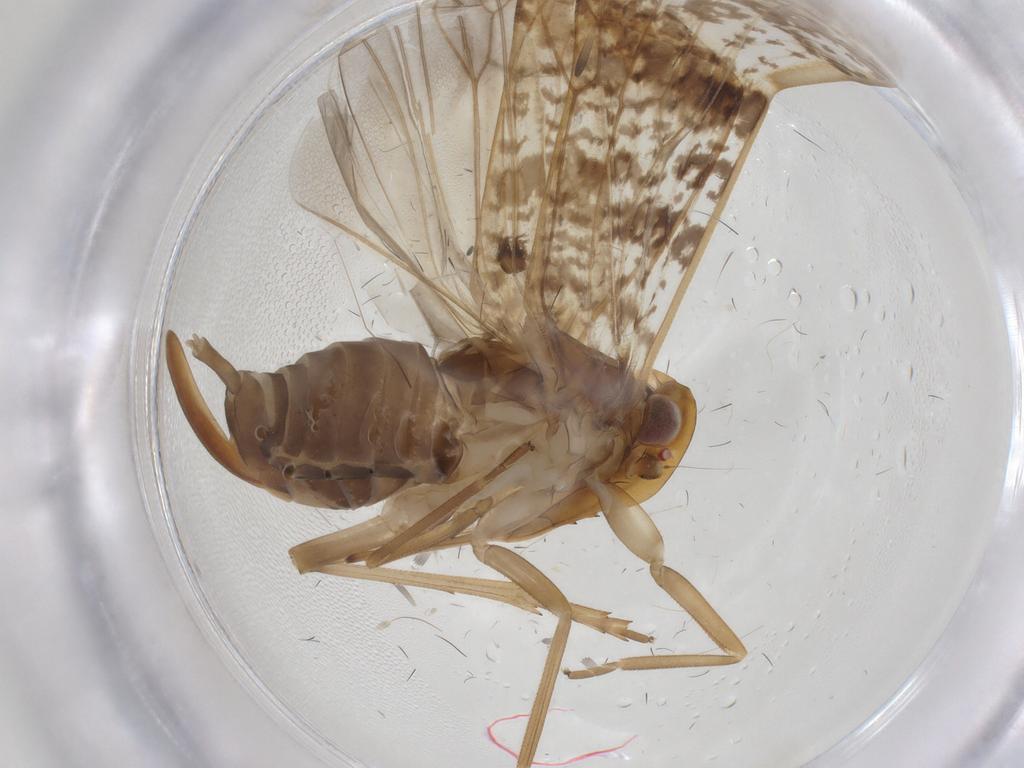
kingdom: Animalia
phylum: Arthropoda
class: Insecta
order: Hemiptera
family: Cixiidae
